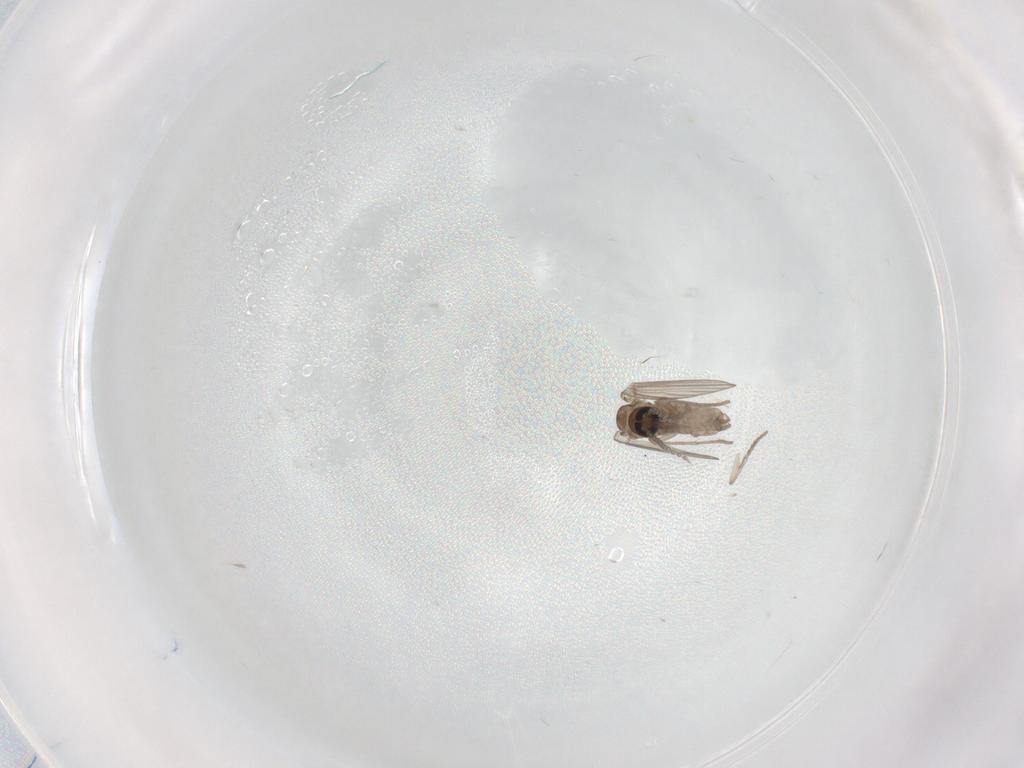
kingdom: Animalia
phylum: Arthropoda
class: Insecta
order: Diptera
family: Psychodidae
